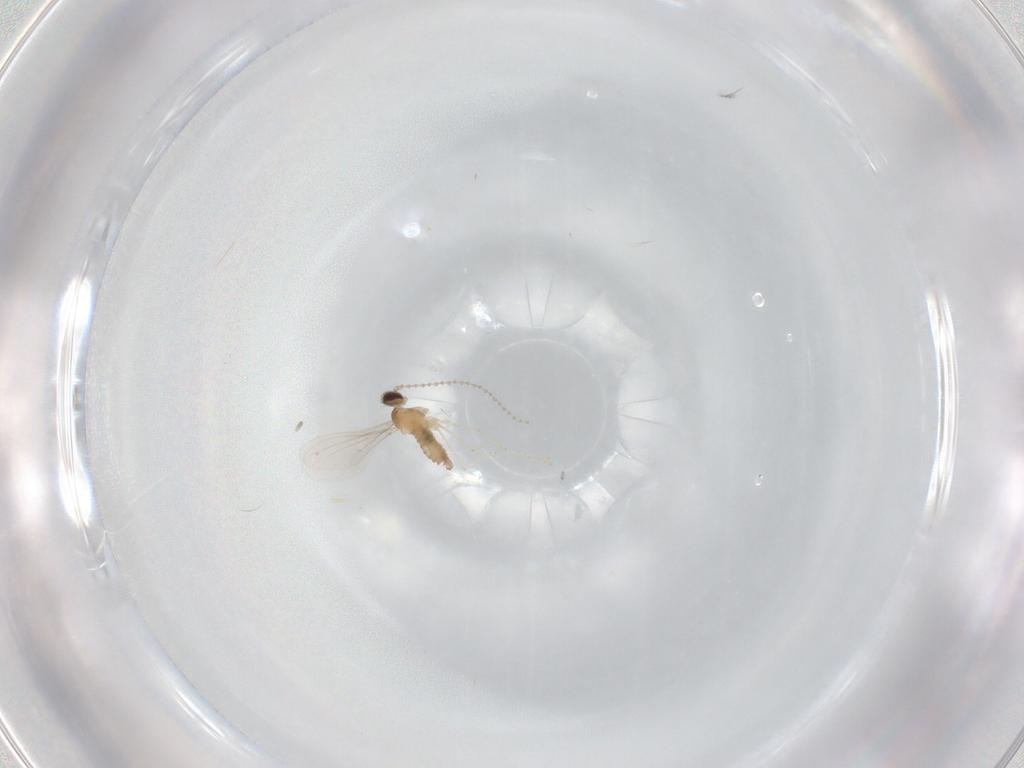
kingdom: Animalia
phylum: Arthropoda
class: Insecta
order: Diptera
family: Cecidomyiidae
